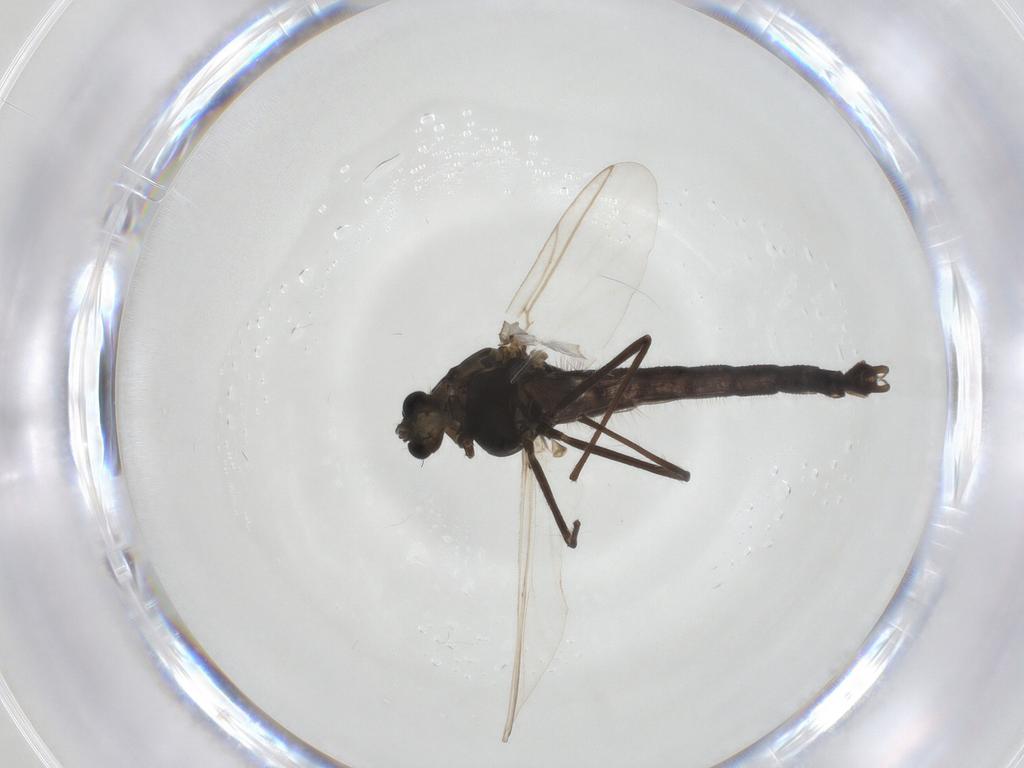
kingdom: Animalia
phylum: Arthropoda
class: Insecta
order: Diptera
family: Chironomidae
